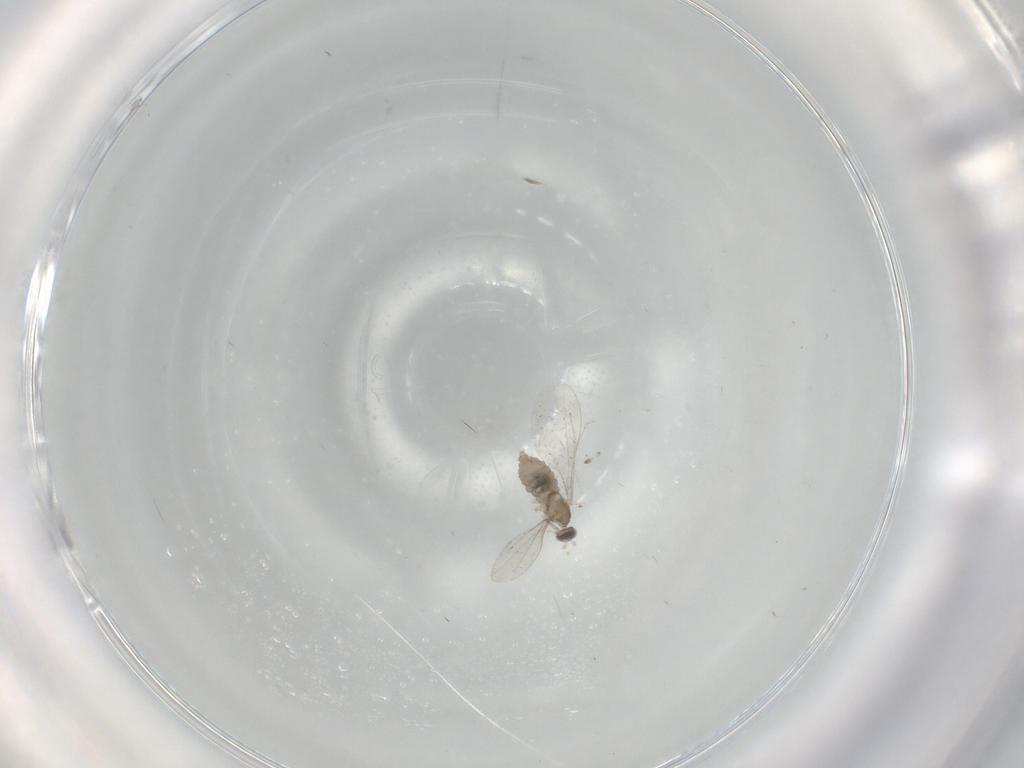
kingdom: Animalia
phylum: Arthropoda
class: Insecta
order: Diptera
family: Cecidomyiidae
